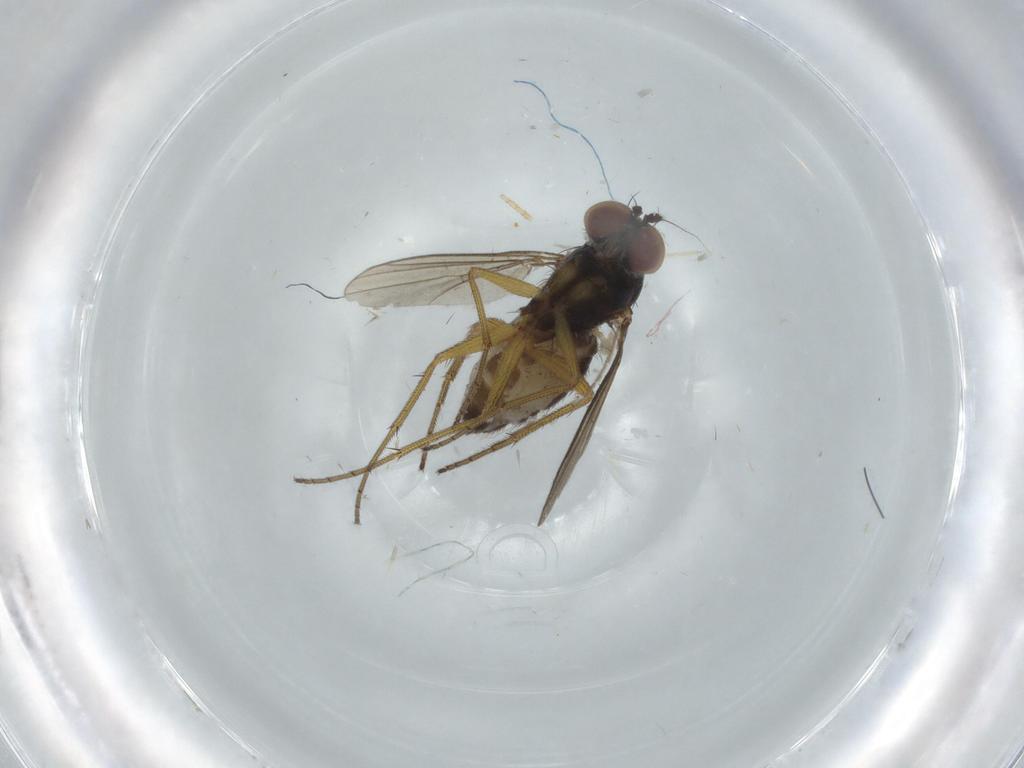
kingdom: Animalia
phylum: Arthropoda
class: Insecta
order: Diptera
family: Dolichopodidae
